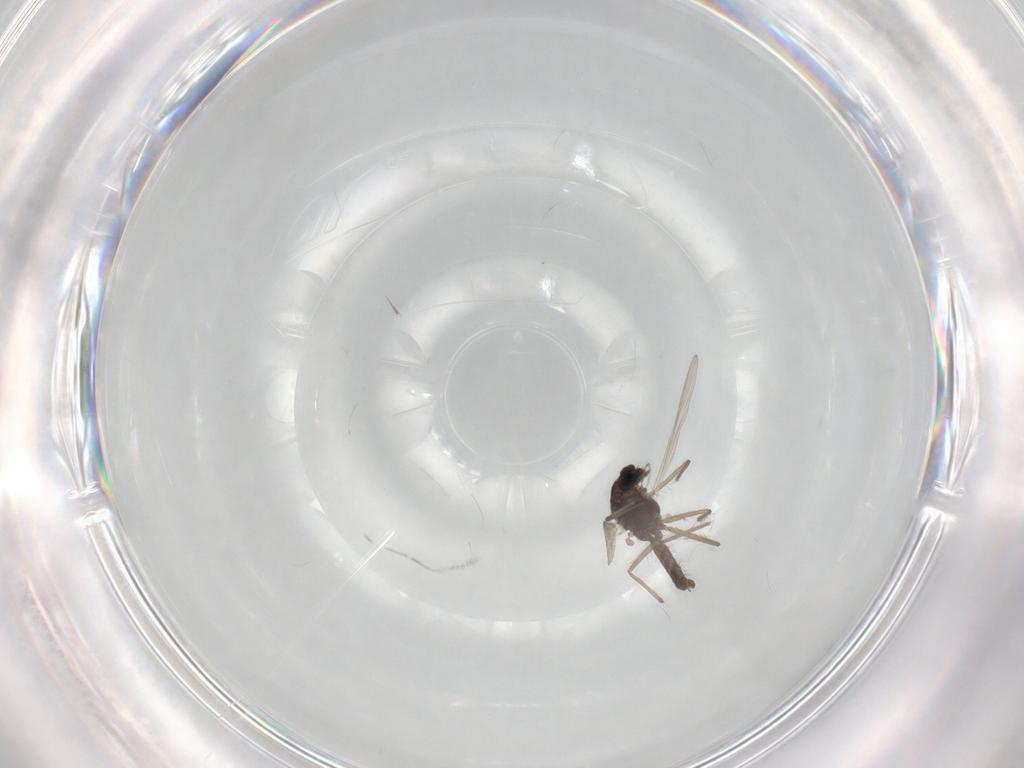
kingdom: Animalia
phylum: Arthropoda
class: Insecta
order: Diptera
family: Chironomidae
